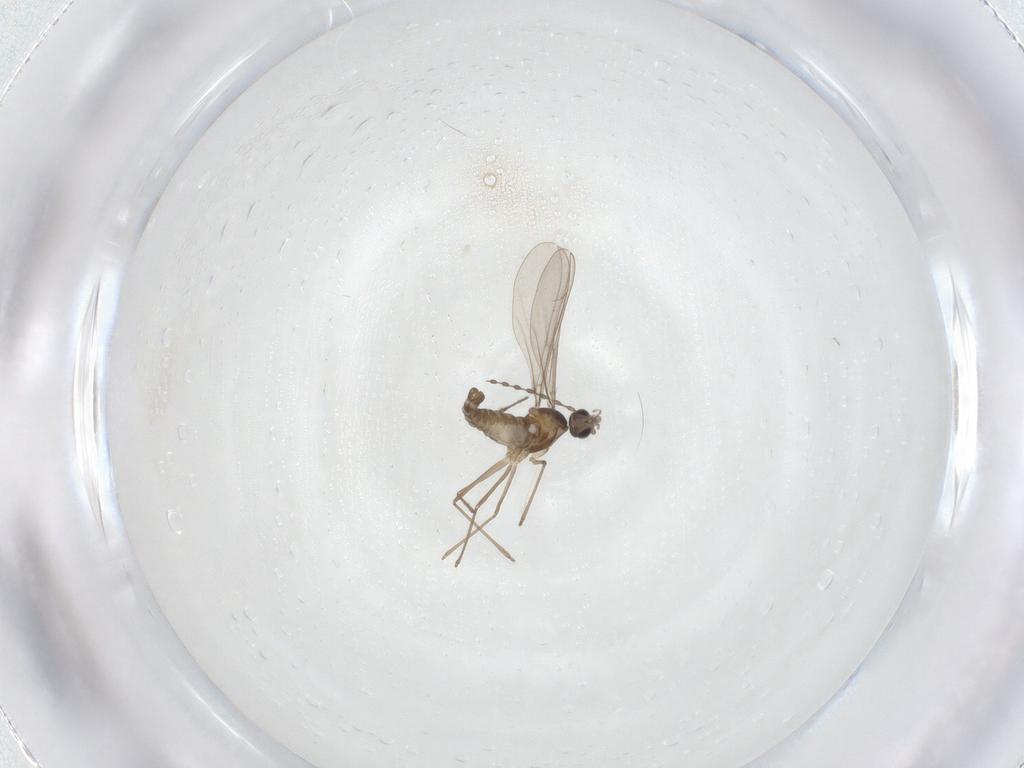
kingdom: Animalia
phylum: Arthropoda
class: Insecta
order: Diptera
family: Cecidomyiidae
